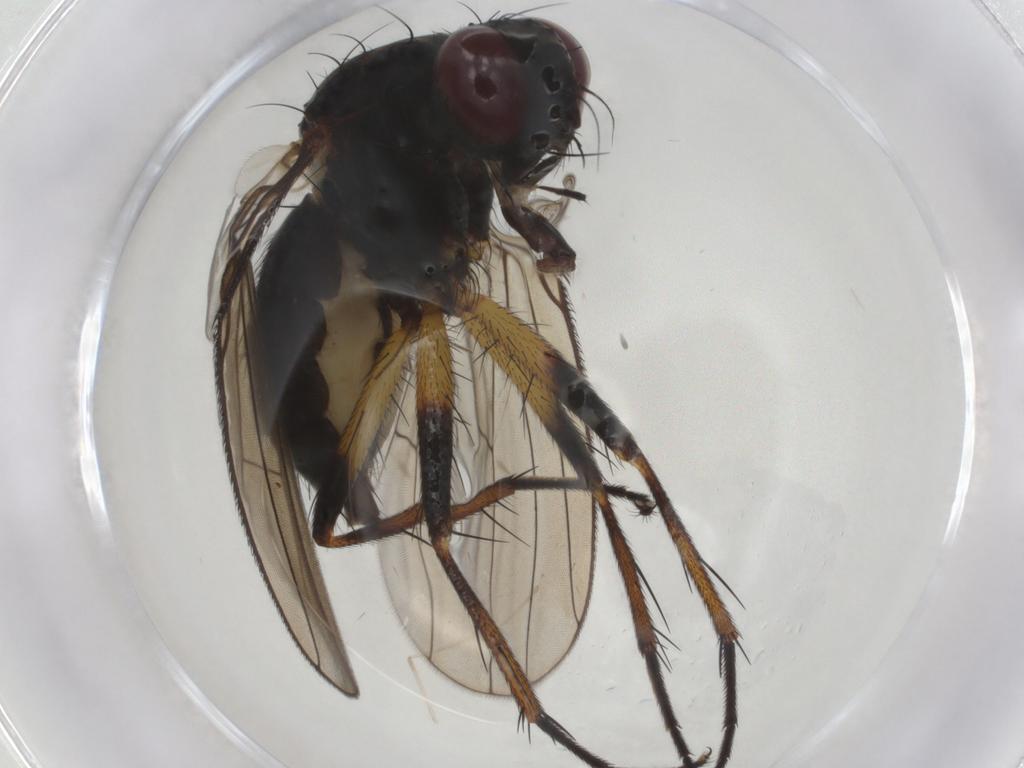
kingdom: Animalia
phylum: Arthropoda
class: Insecta
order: Diptera
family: Muscidae
